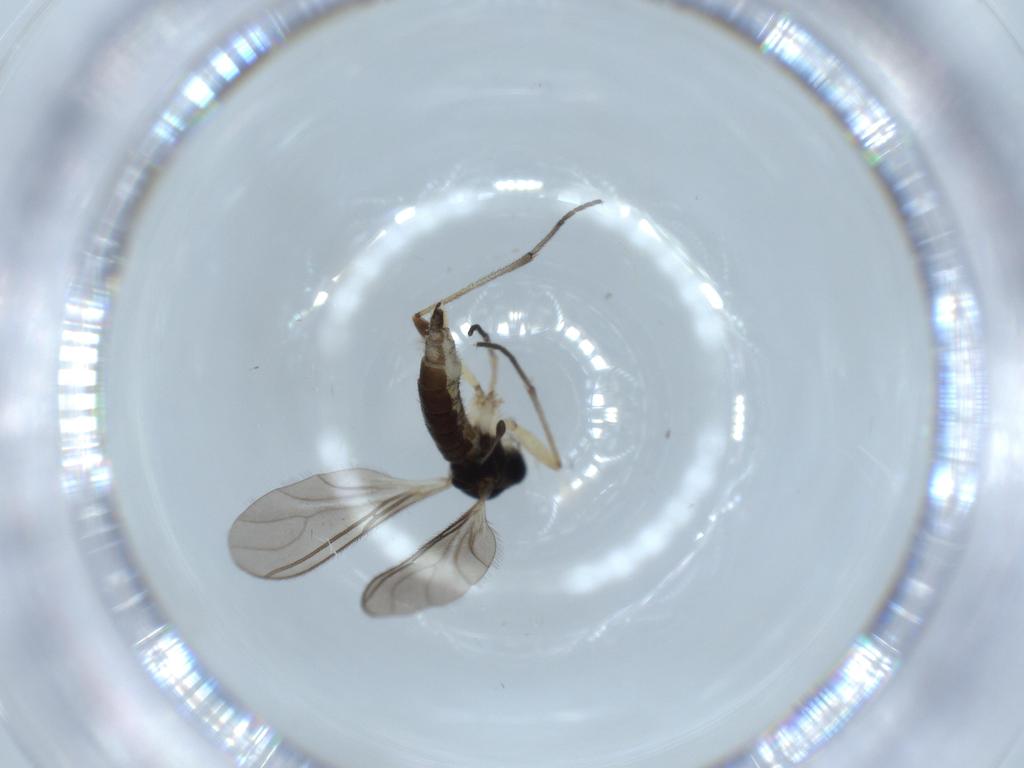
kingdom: Animalia
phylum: Arthropoda
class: Insecta
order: Diptera
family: Sciaridae
